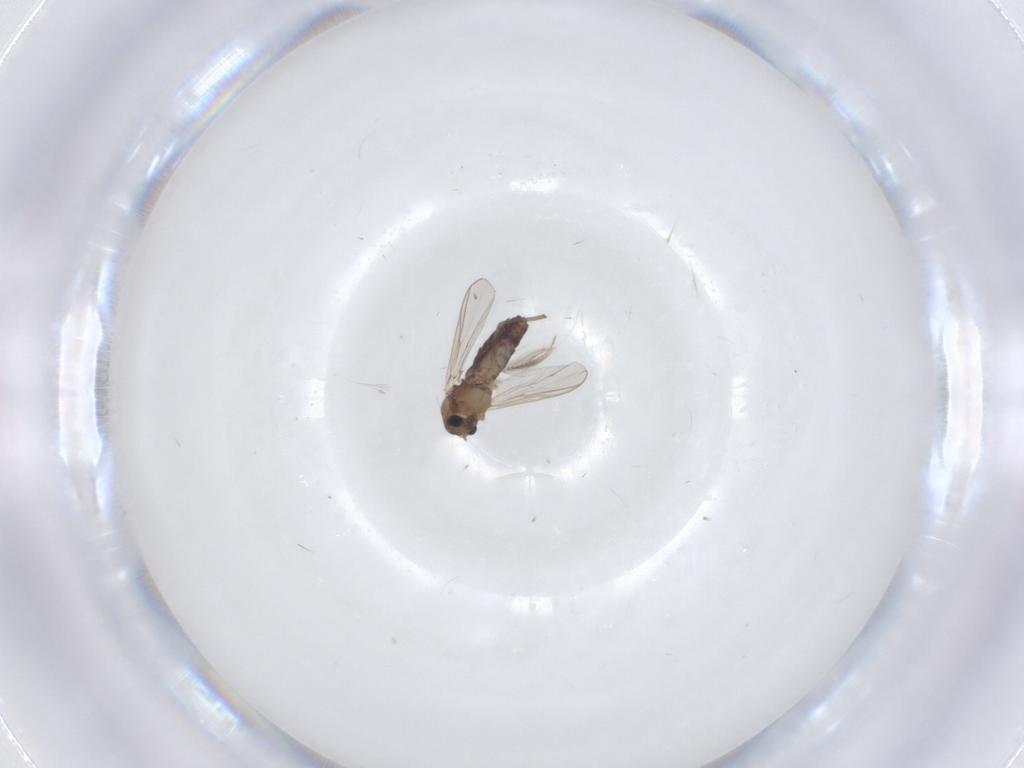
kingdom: Animalia
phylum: Arthropoda
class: Insecta
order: Diptera
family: Chironomidae
